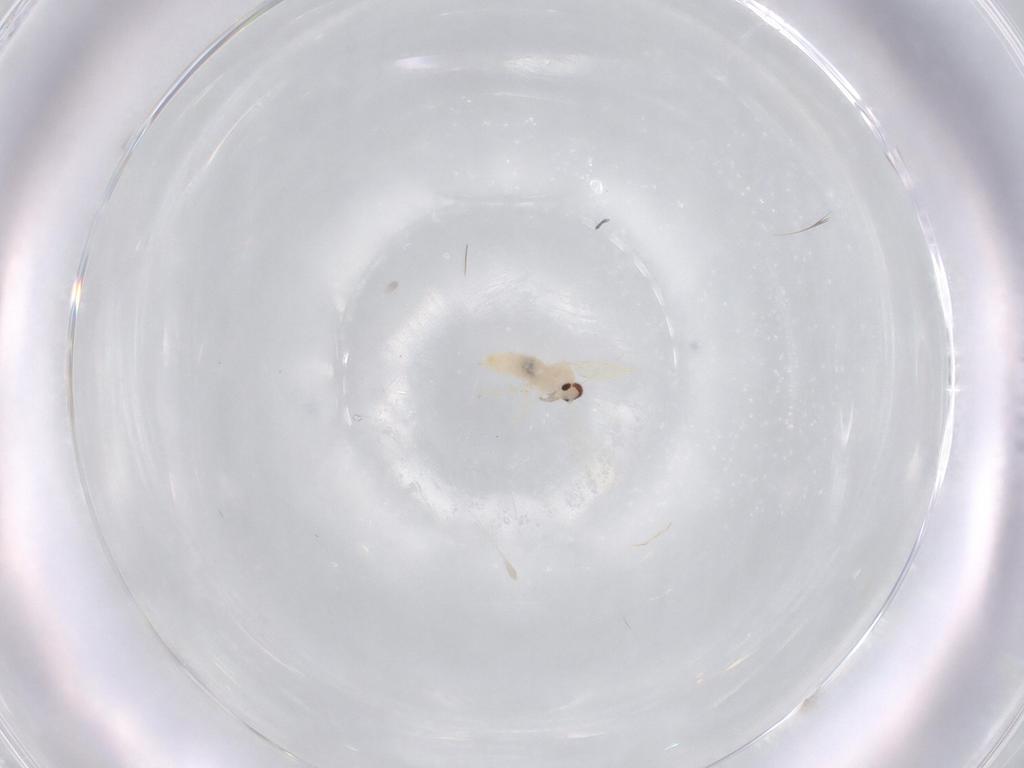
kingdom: Animalia
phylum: Arthropoda
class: Insecta
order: Diptera
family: Cecidomyiidae
